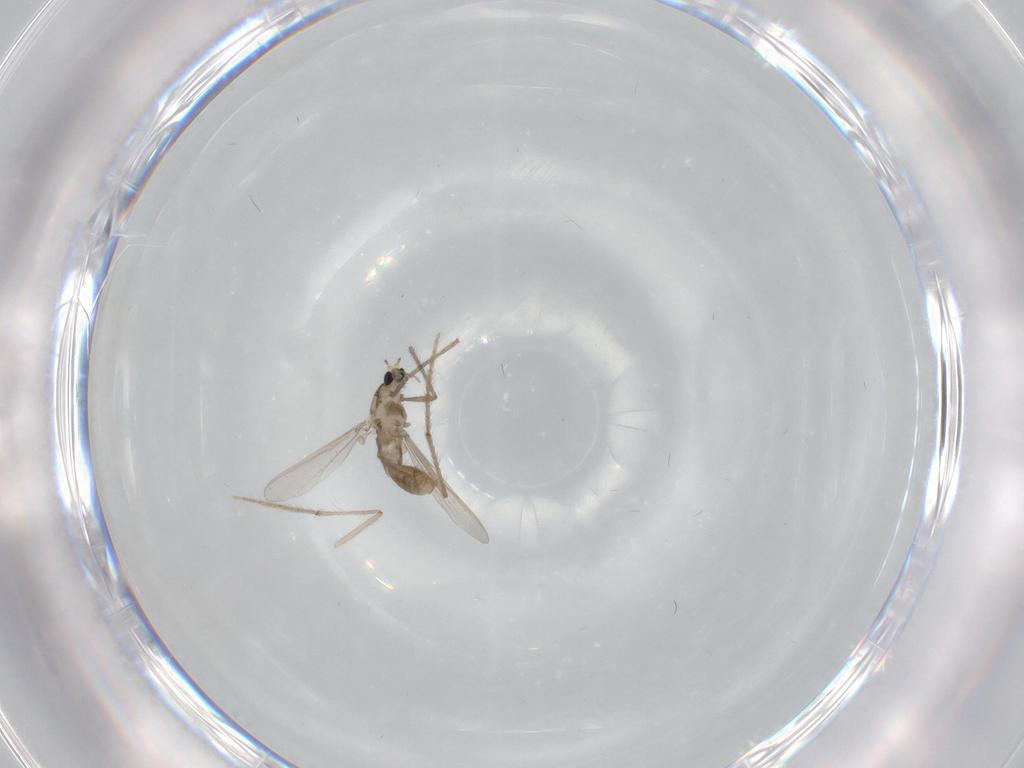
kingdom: Animalia
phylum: Arthropoda
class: Insecta
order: Diptera
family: Chironomidae
